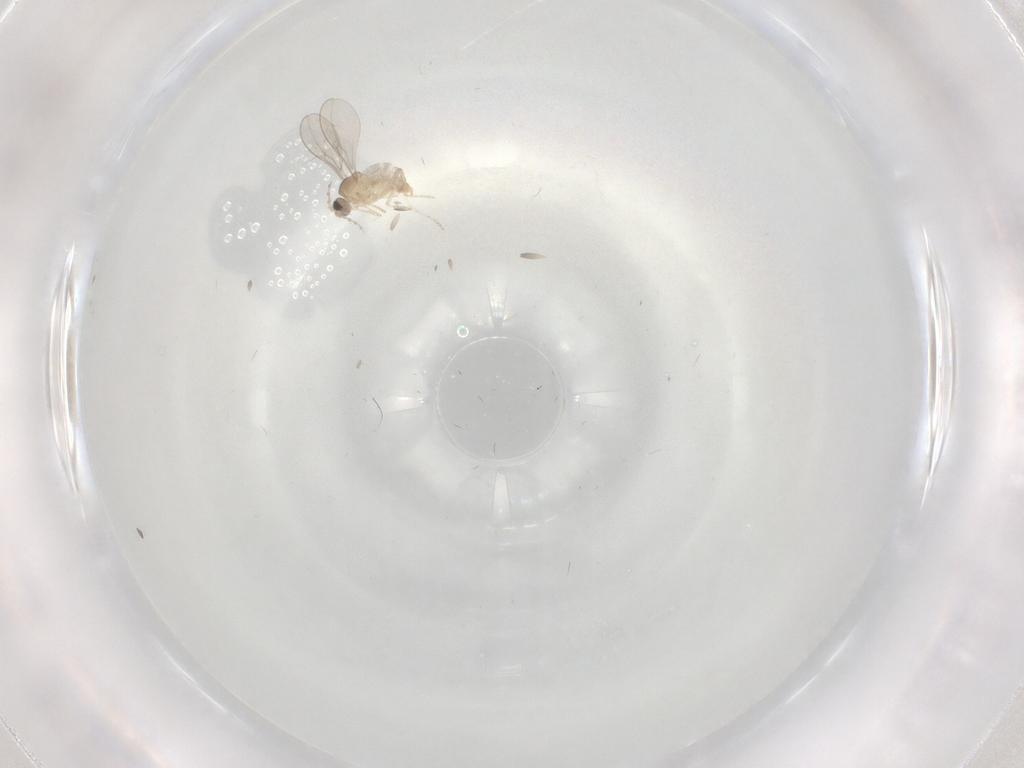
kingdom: Animalia
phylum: Arthropoda
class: Insecta
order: Diptera
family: Cecidomyiidae
